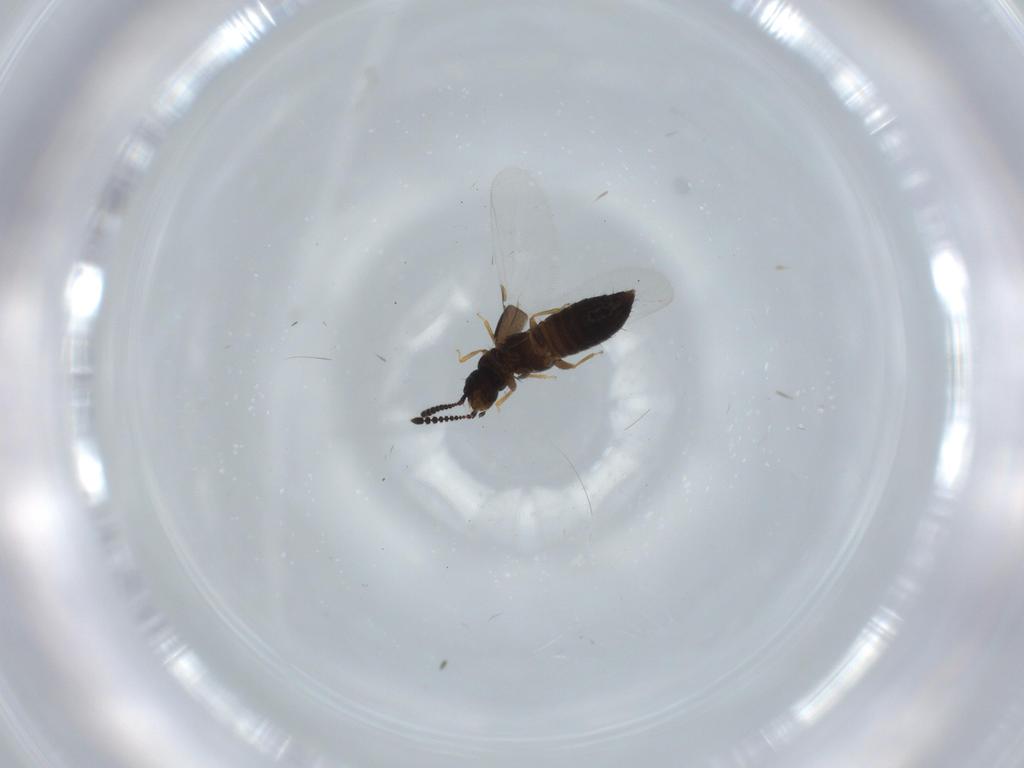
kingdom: Animalia
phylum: Arthropoda
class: Insecta
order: Coleoptera
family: Staphylinidae
